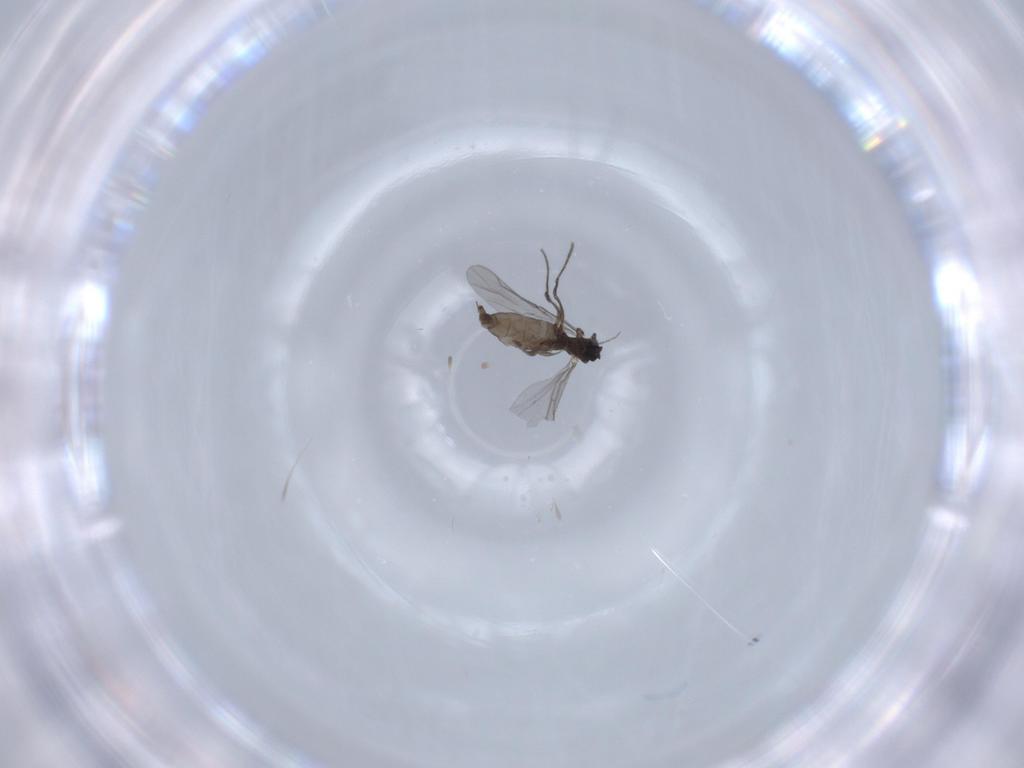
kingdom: Animalia
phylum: Arthropoda
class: Insecta
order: Diptera
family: Sciaridae
